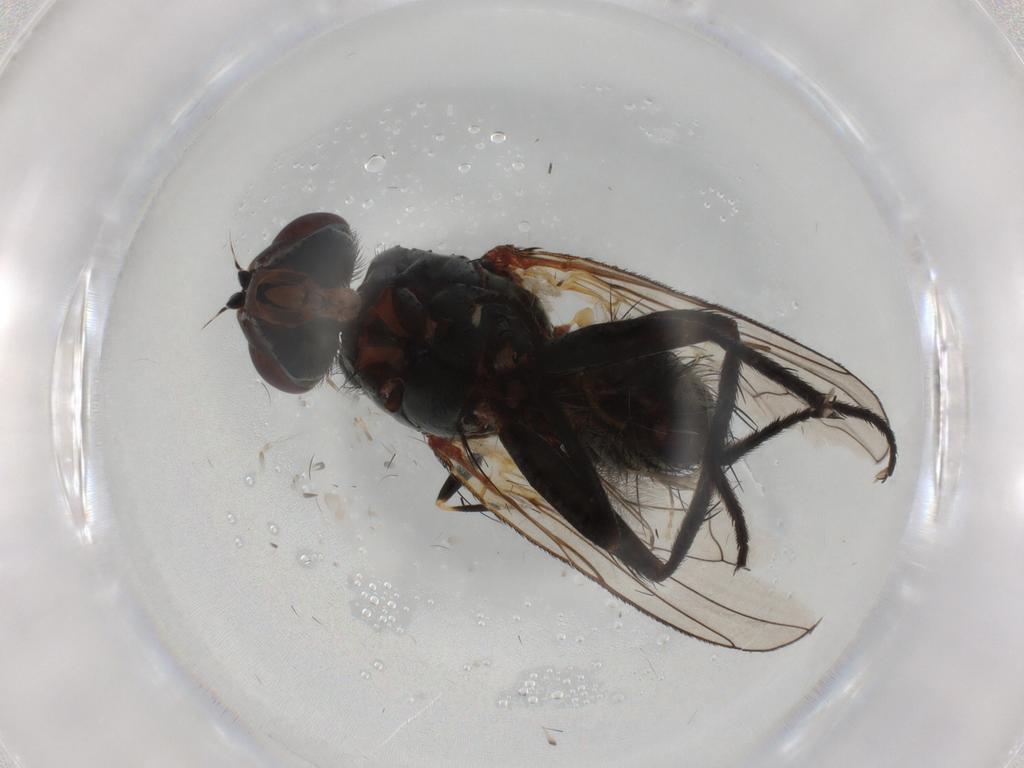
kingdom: Animalia
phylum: Arthropoda
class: Insecta
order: Diptera
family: Anthomyiidae
